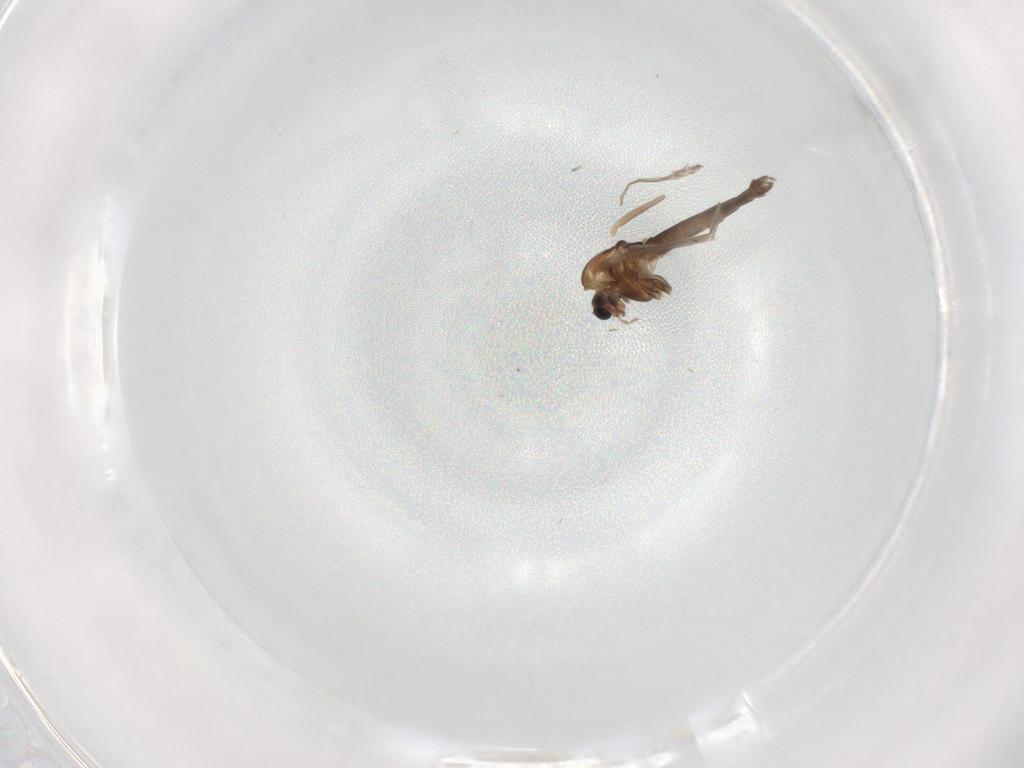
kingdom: Animalia
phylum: Arthropoda
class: Insecta
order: Diptera
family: Chironomidae
